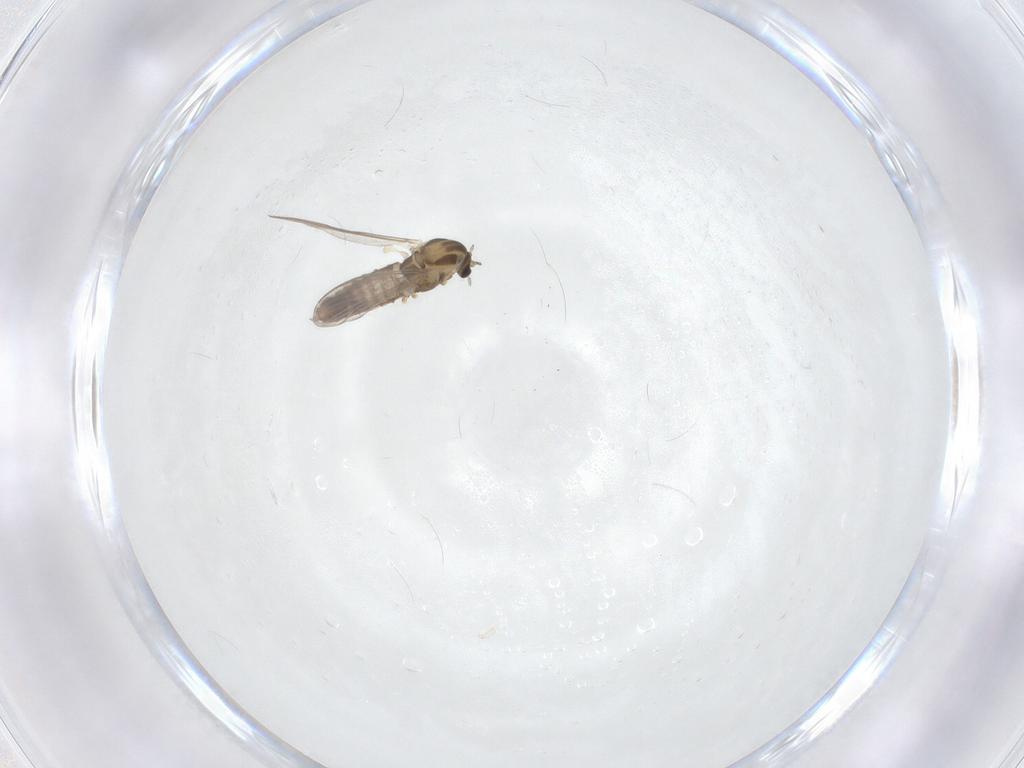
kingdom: Animalia
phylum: Arthropoda
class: Insecta
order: Diptera
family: Chironomidae
